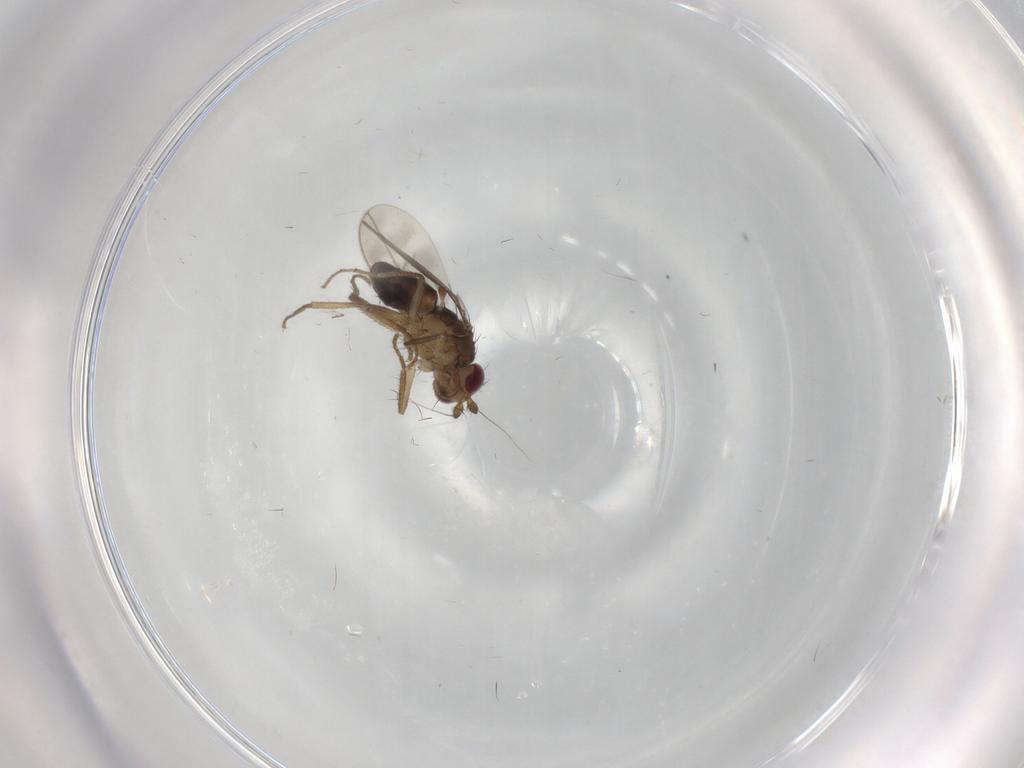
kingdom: Animalia
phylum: Arthropoda
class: Insecta
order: Diptera
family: Sphaeroceridae
